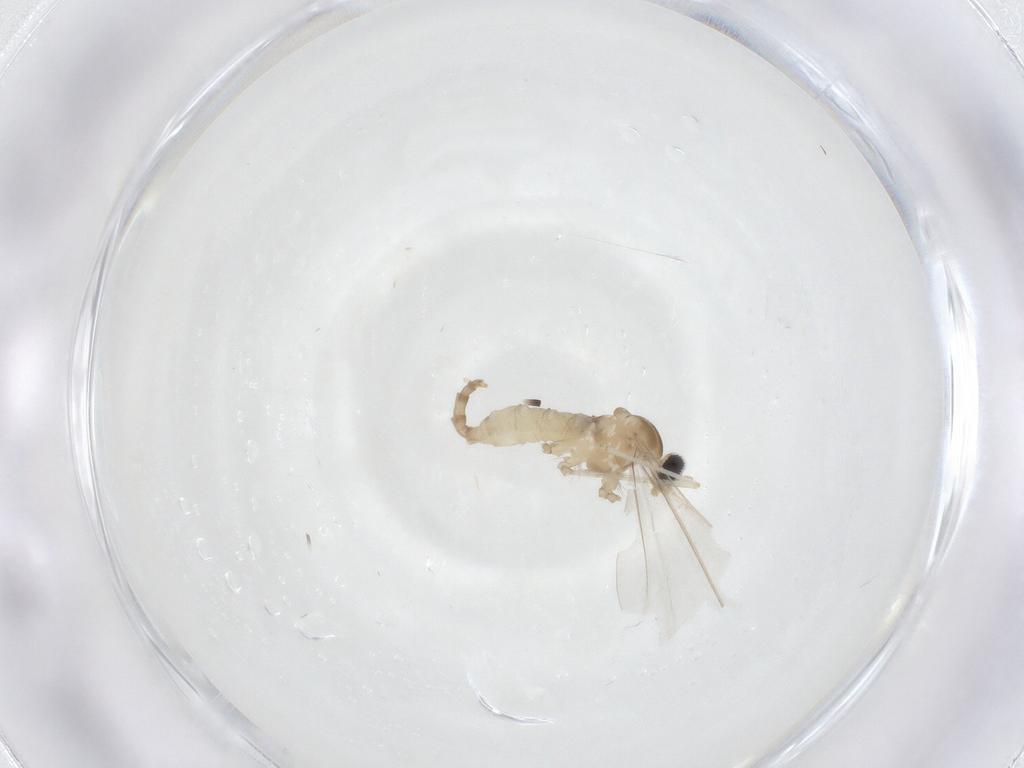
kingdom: Animalia
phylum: Arthropoda
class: Insecta
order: Diptera
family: Cecidomyiidae
